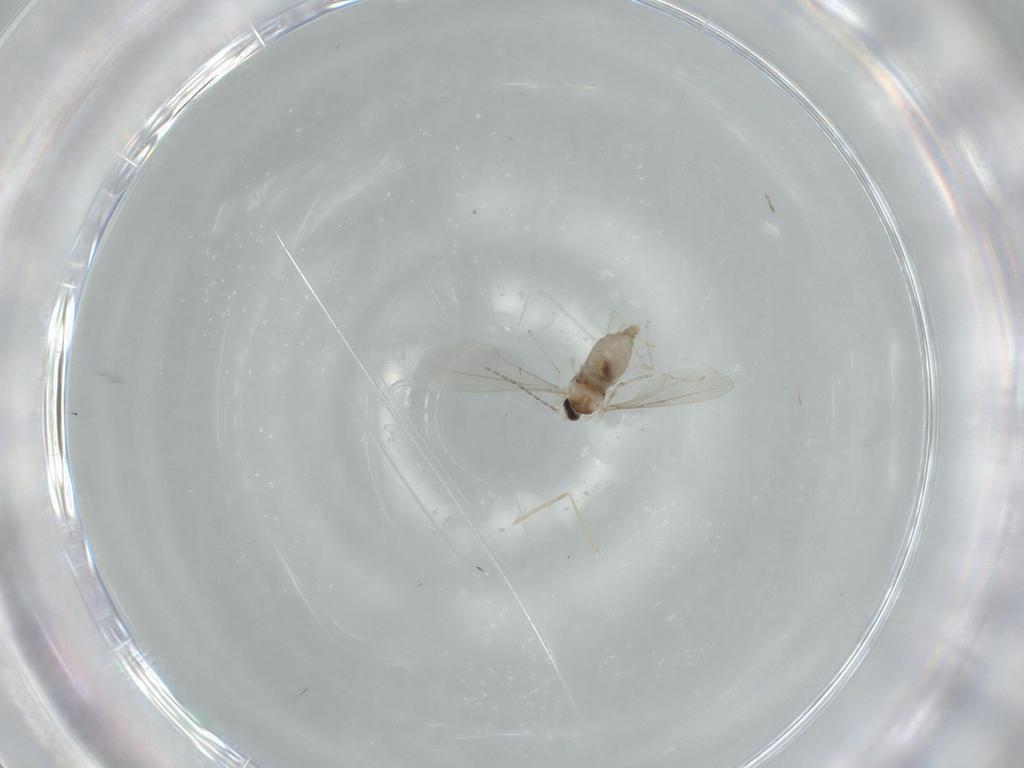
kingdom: Animalia
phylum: Arthropoda
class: Insecta
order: Diptera
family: Cecidomyiidae
